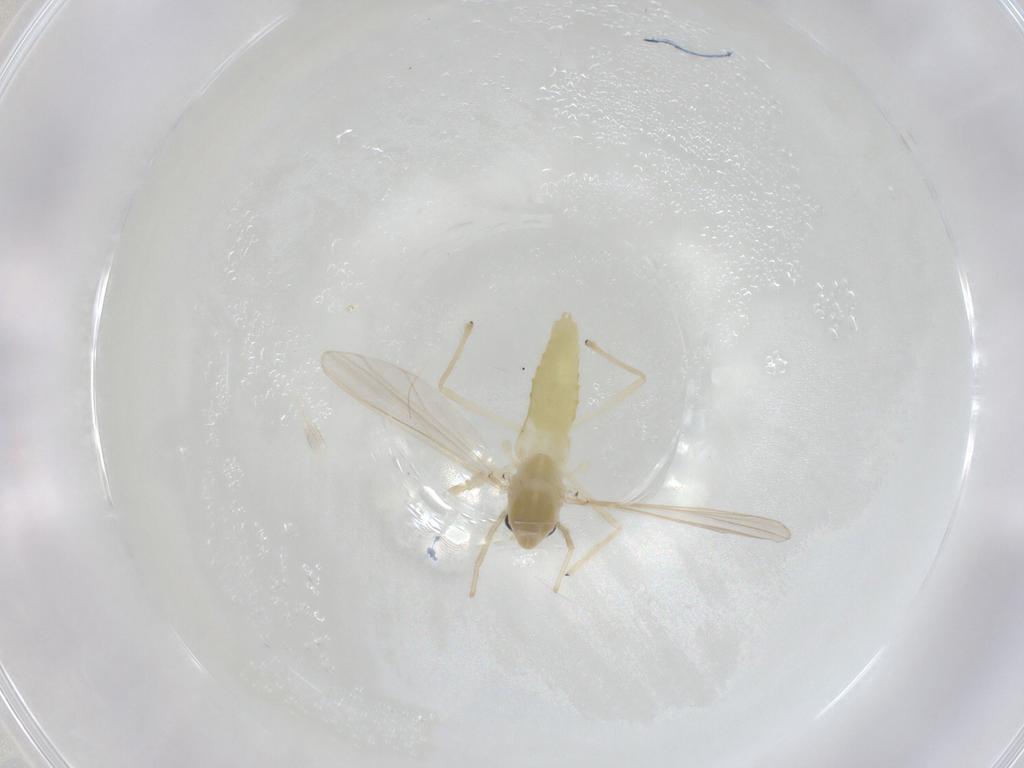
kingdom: Animalia
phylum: Arthropoda
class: Insecta
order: Diptera
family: Chironomidae
